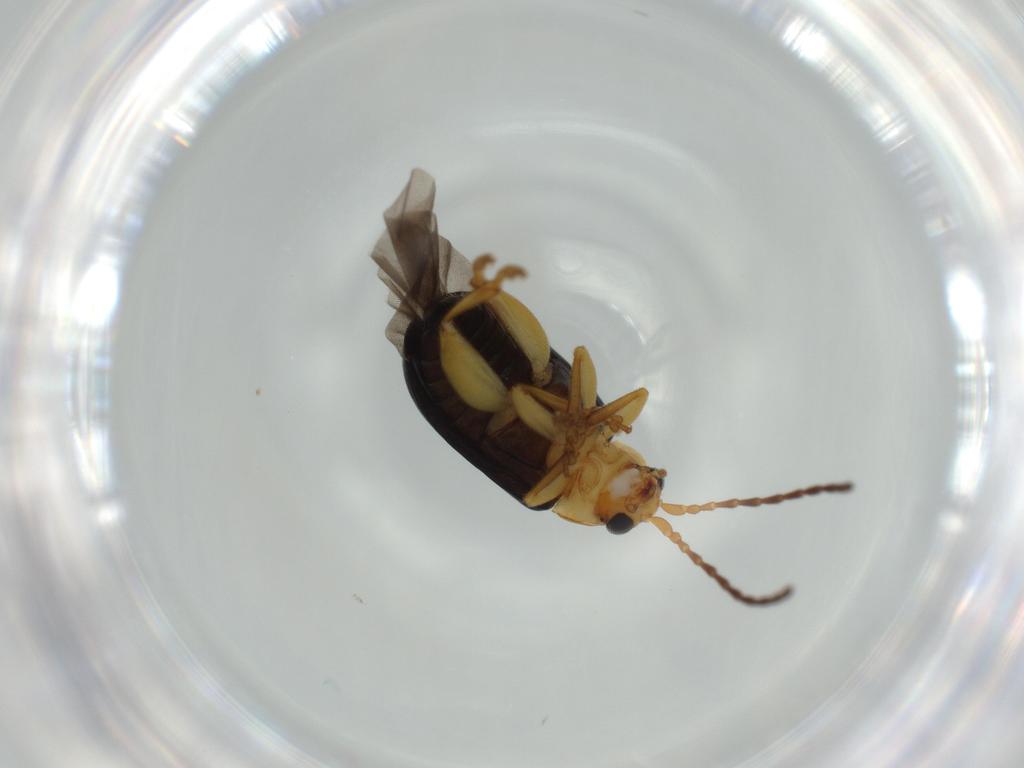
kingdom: Animalia
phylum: Arthropoda
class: Insecta
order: Coleoptera
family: Chrysomelidae
